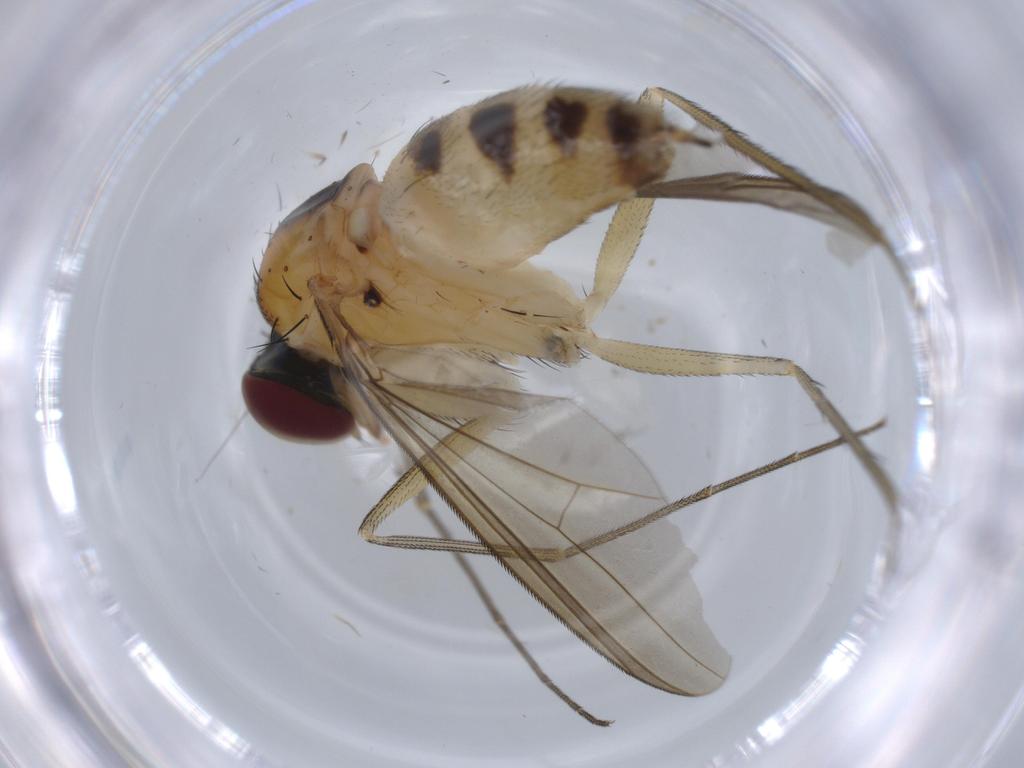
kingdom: Animalia
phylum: Arthropoda
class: Insecta
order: Diptera
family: Dolichopodidae
